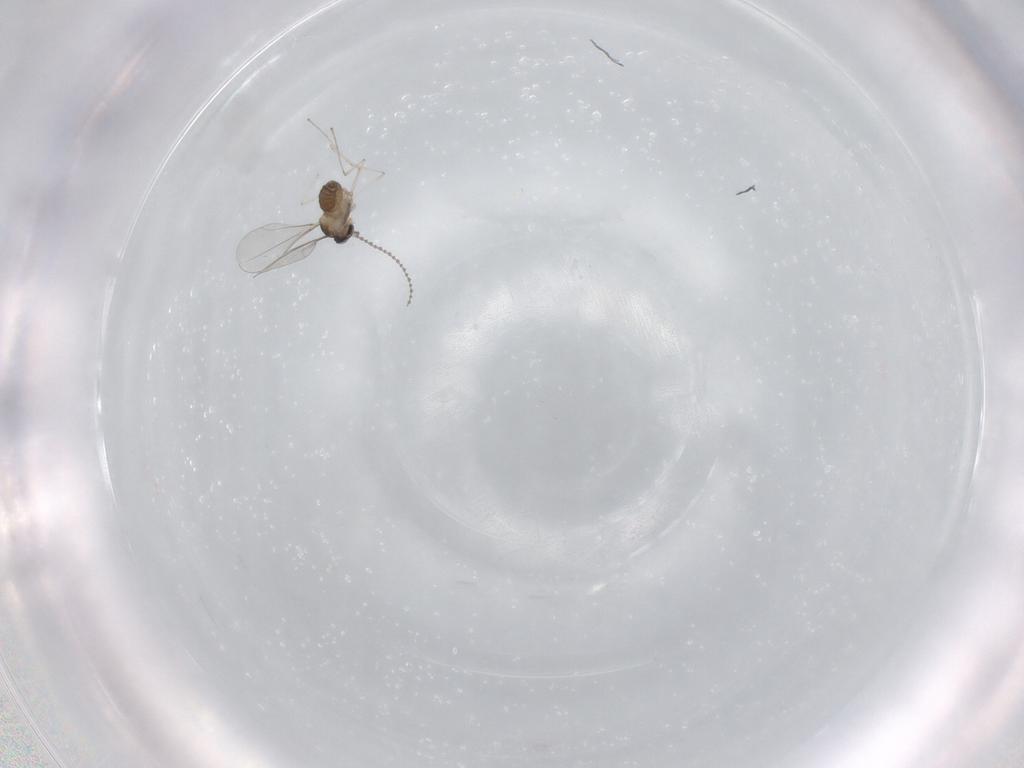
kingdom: Animalia
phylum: Arthropoda
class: Insecta
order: Diptera
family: Cecidomyiidae
